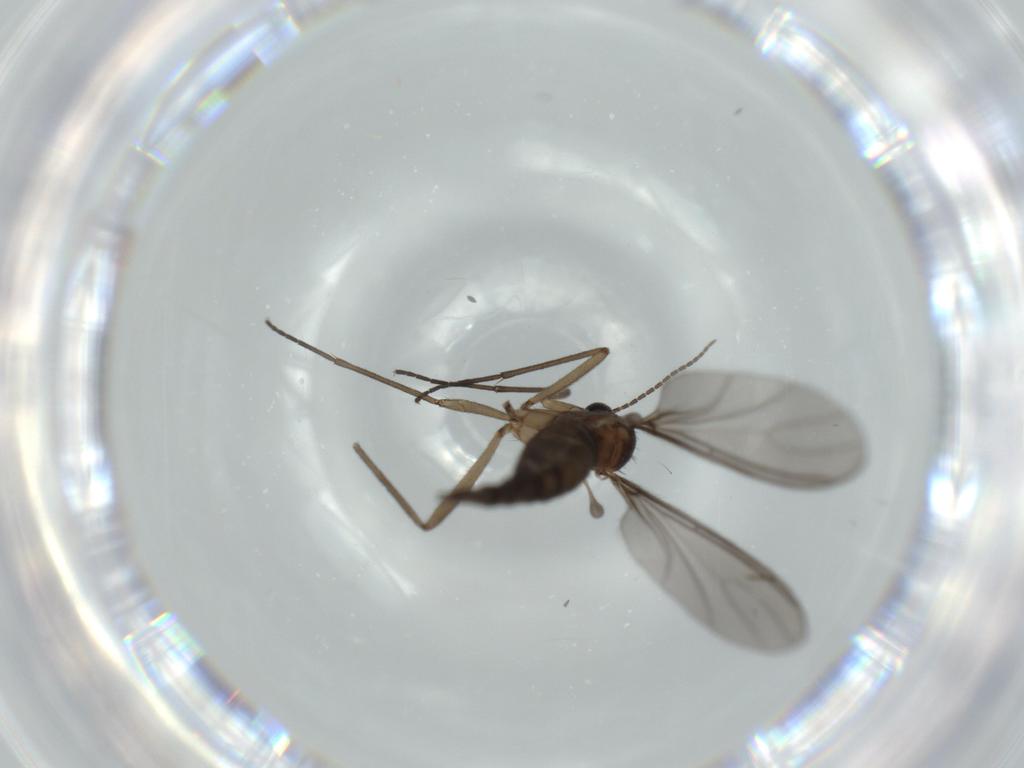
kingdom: Animalia
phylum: Arthropoda
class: Insecta
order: Diptera
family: Sciaridae
